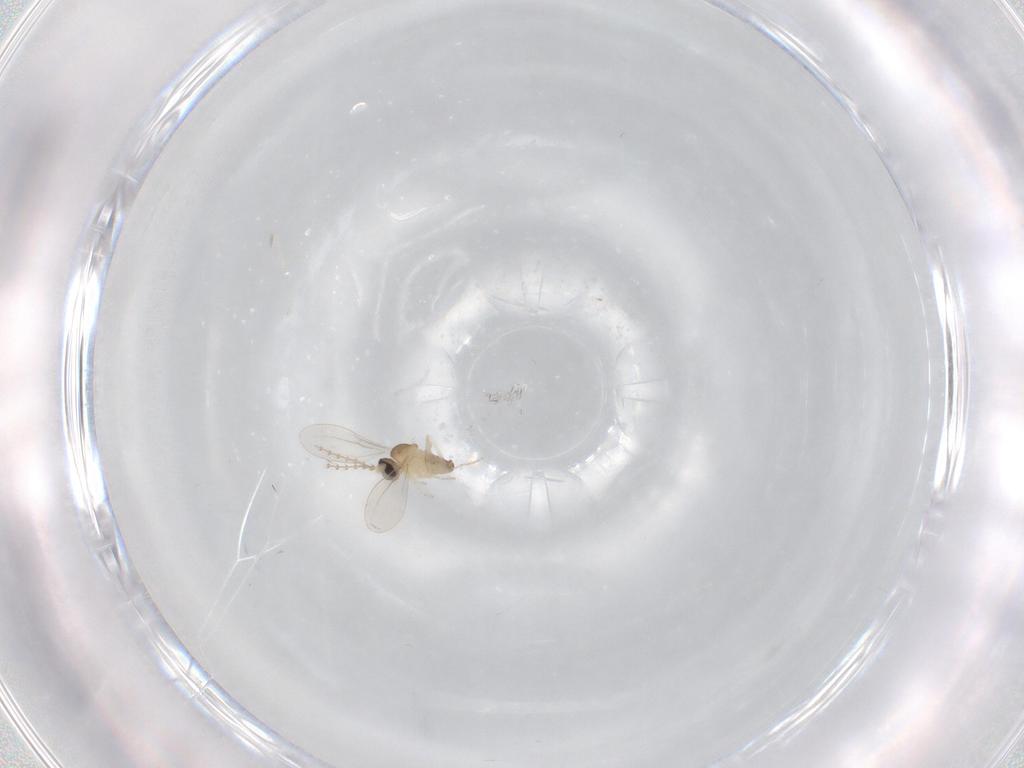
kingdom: Animalia
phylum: Arthropoda
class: Insecta
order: Diptera
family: Cecidomyiidae
